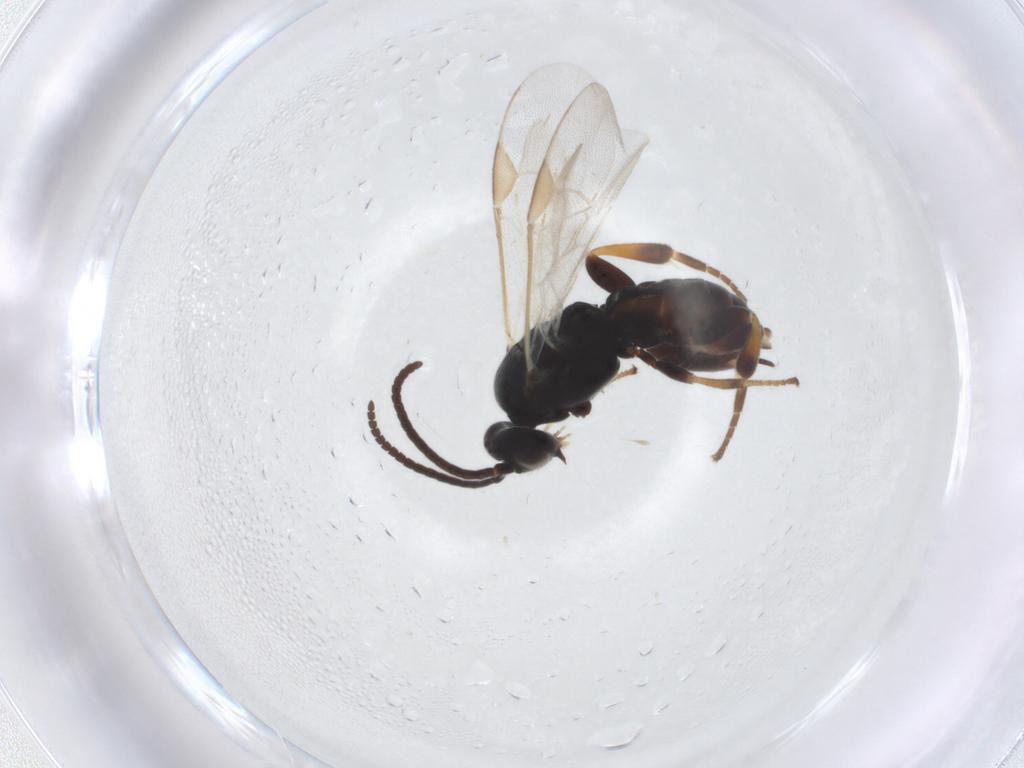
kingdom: Animalia
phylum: Arthropoda
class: Insecta
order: Hymenoptera
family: Braconidae
